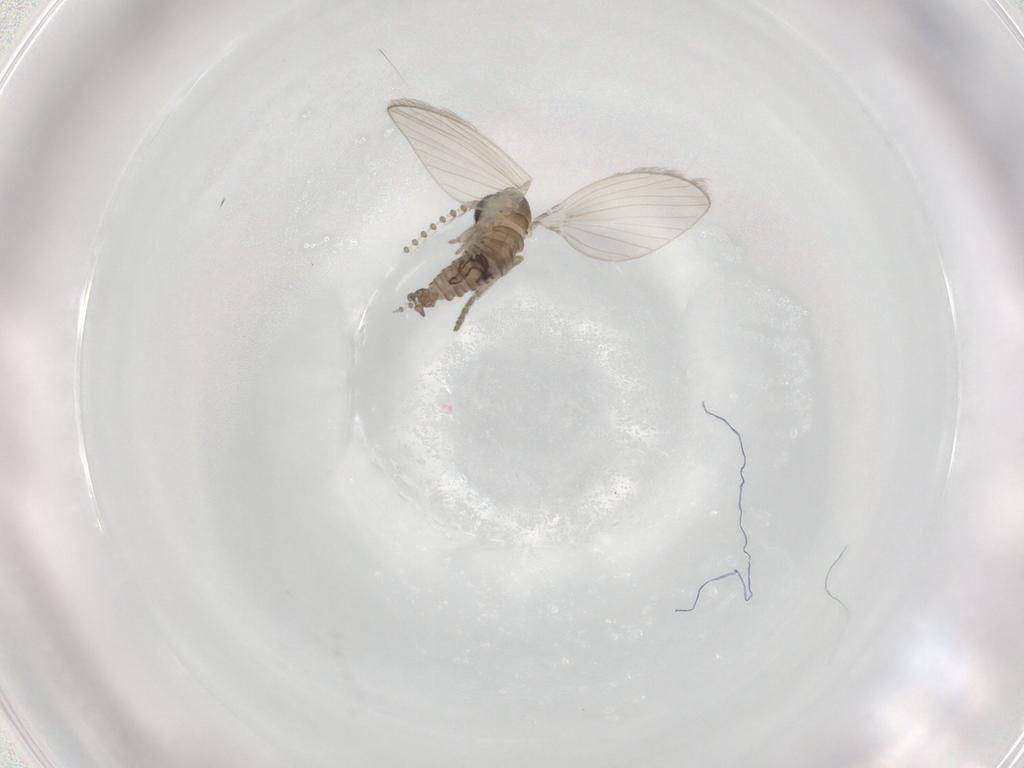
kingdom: Animalia
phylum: Arthropoda
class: Insecta
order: Diptera
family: Psychodidae
